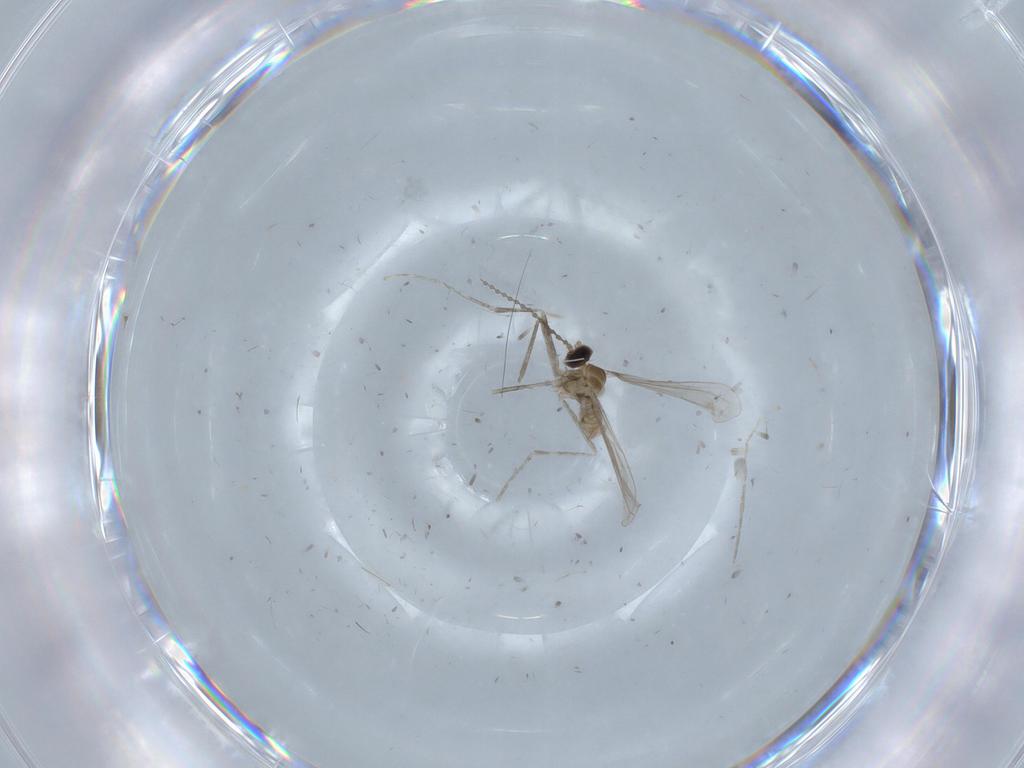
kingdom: Animalia
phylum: Arthropoda
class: Insecta
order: Diptera
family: Cecidomyiidae
